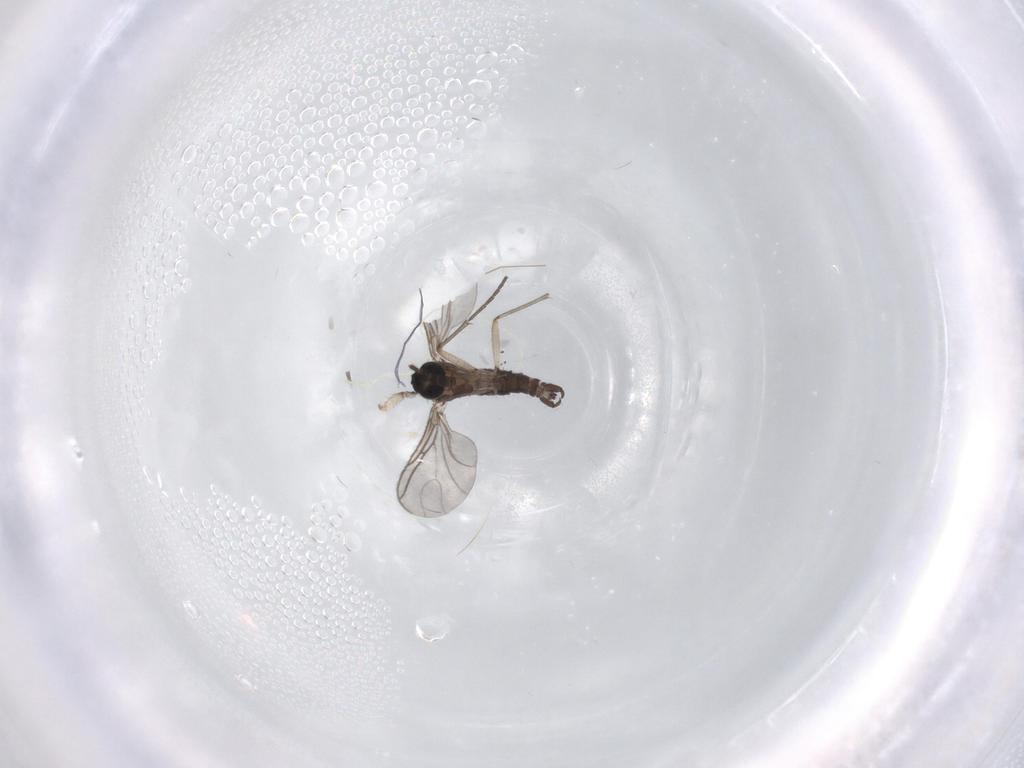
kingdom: Animalia
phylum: Arthropoda
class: Insecta
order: Diptera
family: Sciaridae
